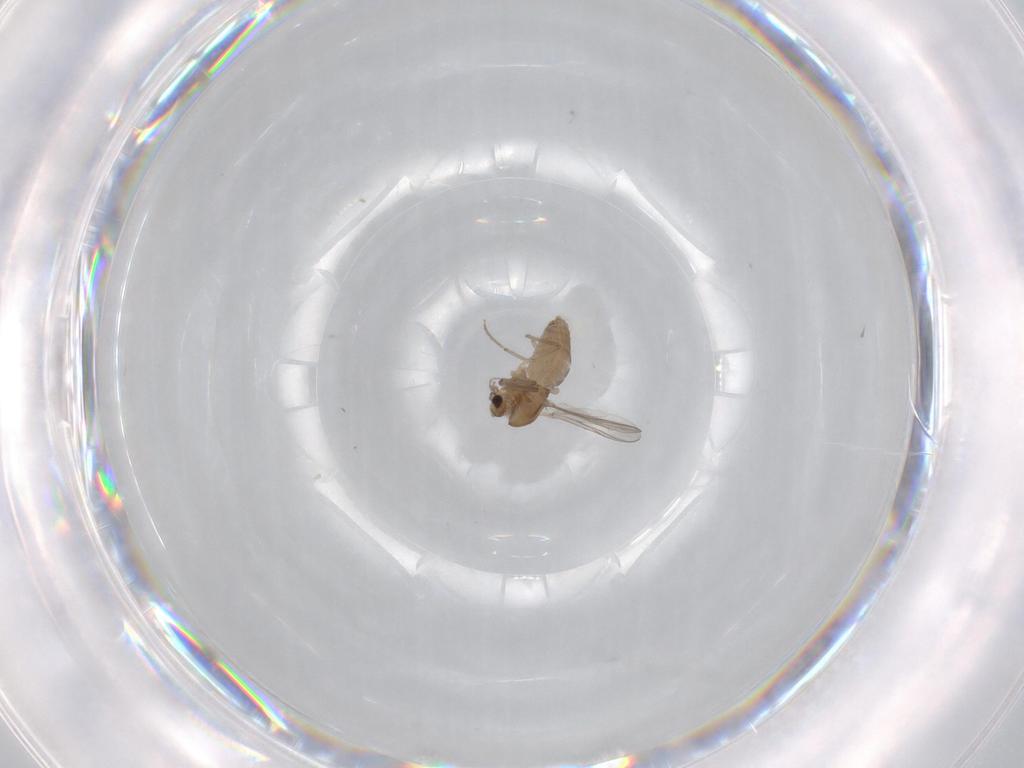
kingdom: Animalia
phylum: Arthropoda
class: Insecta
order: Diptera
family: Chironomidae
